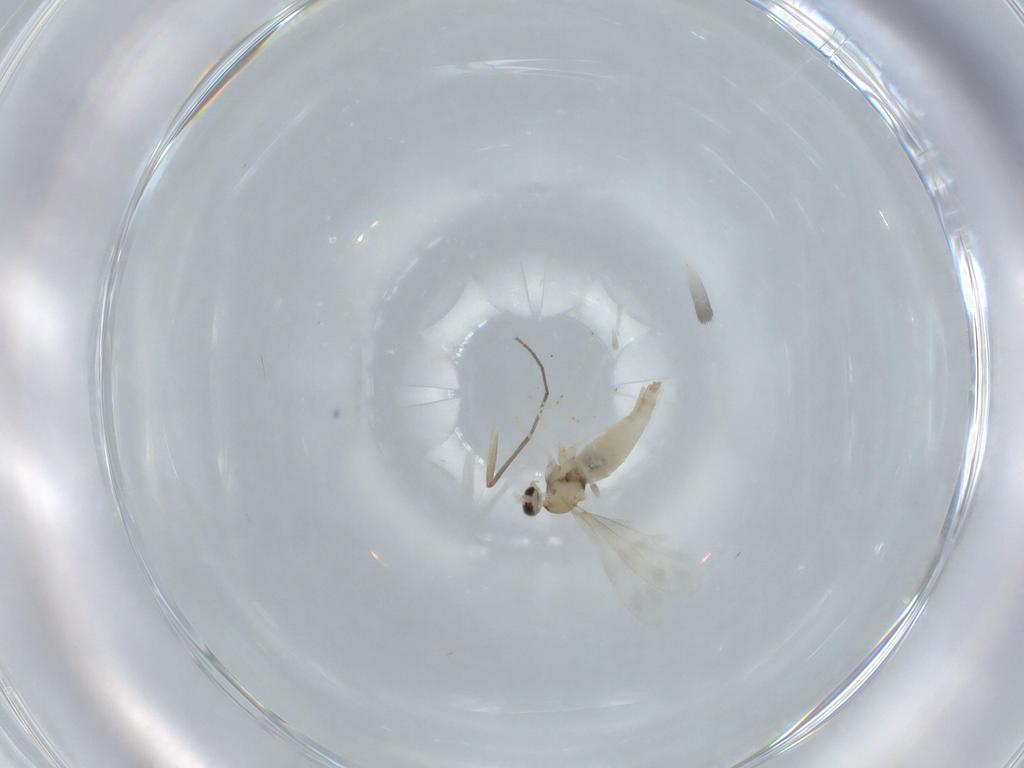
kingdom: Animalia
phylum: Arthropoda
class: Insecta
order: Diptera
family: Cecidomyiidae
